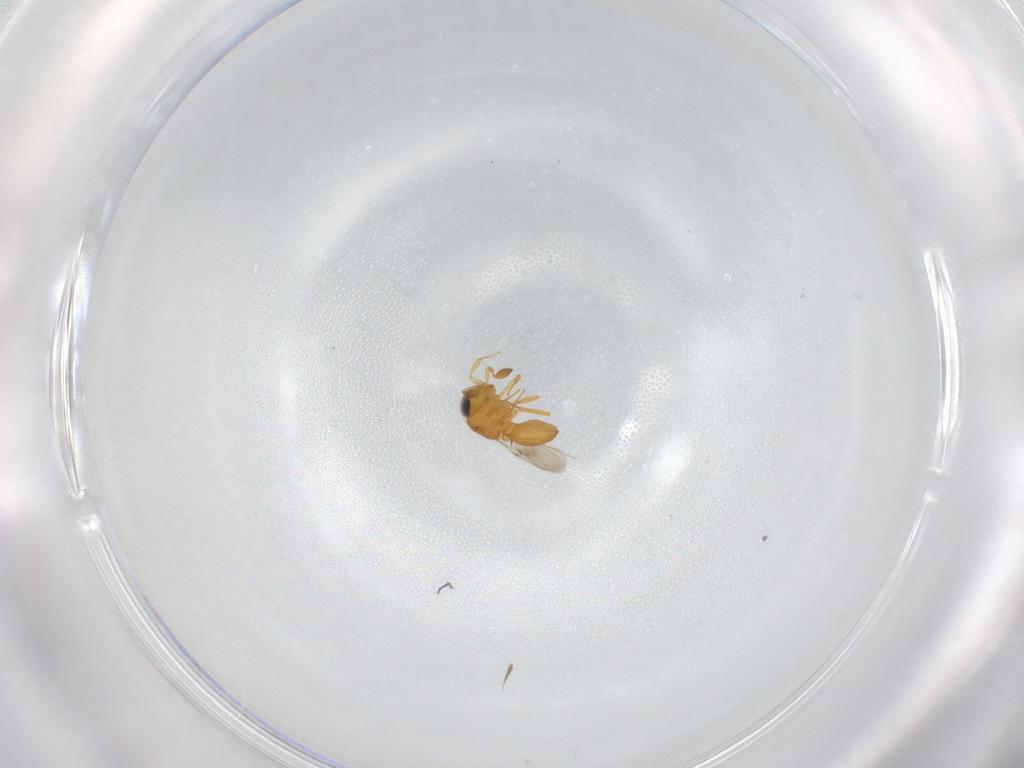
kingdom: Animalia
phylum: Arthropoda
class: Insecta
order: Hymenoptera
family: Scelionidae
